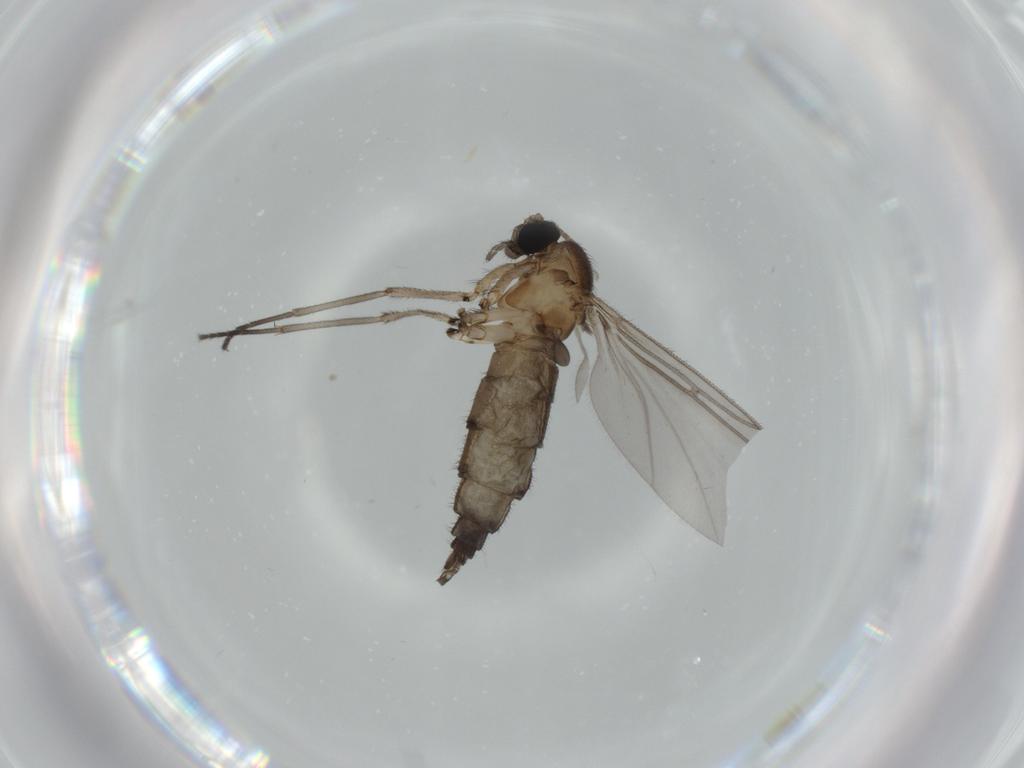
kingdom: Animalia
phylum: Arthropoda
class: Insecta
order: Diptera
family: Sciaridae
